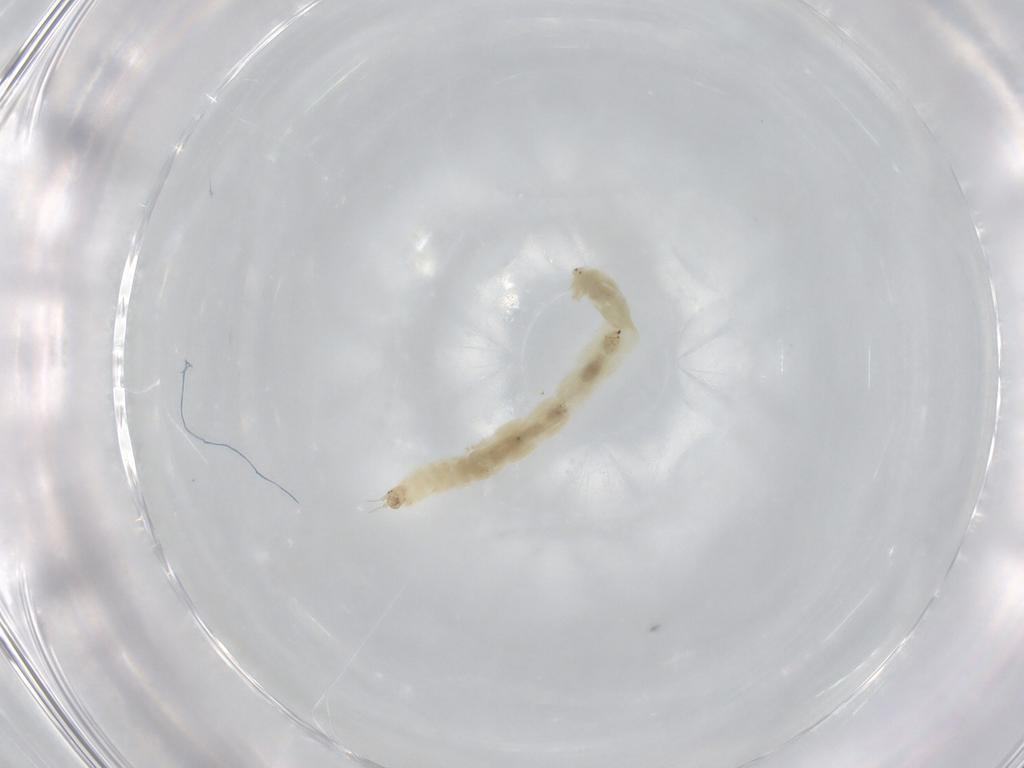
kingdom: Animalia
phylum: Arthropoda
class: Insecta
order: Diptera
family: Chironomidae
